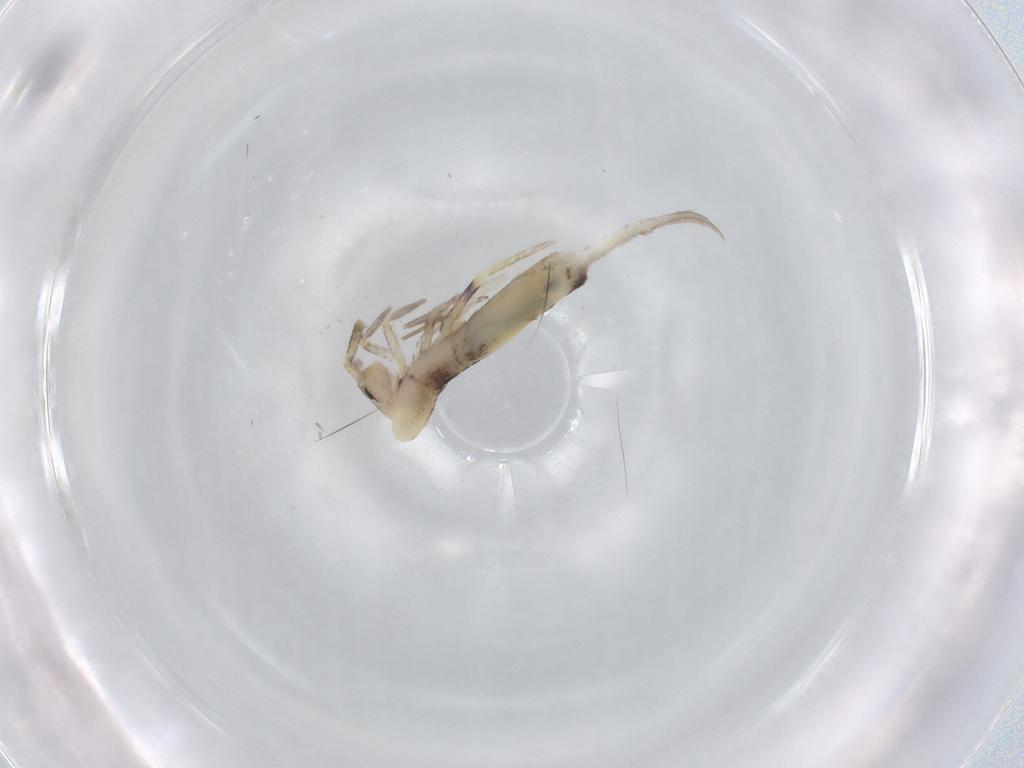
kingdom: Animalia
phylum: Arthropoda
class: Collembola
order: Entomobryomorpha
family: Entomobryidae
